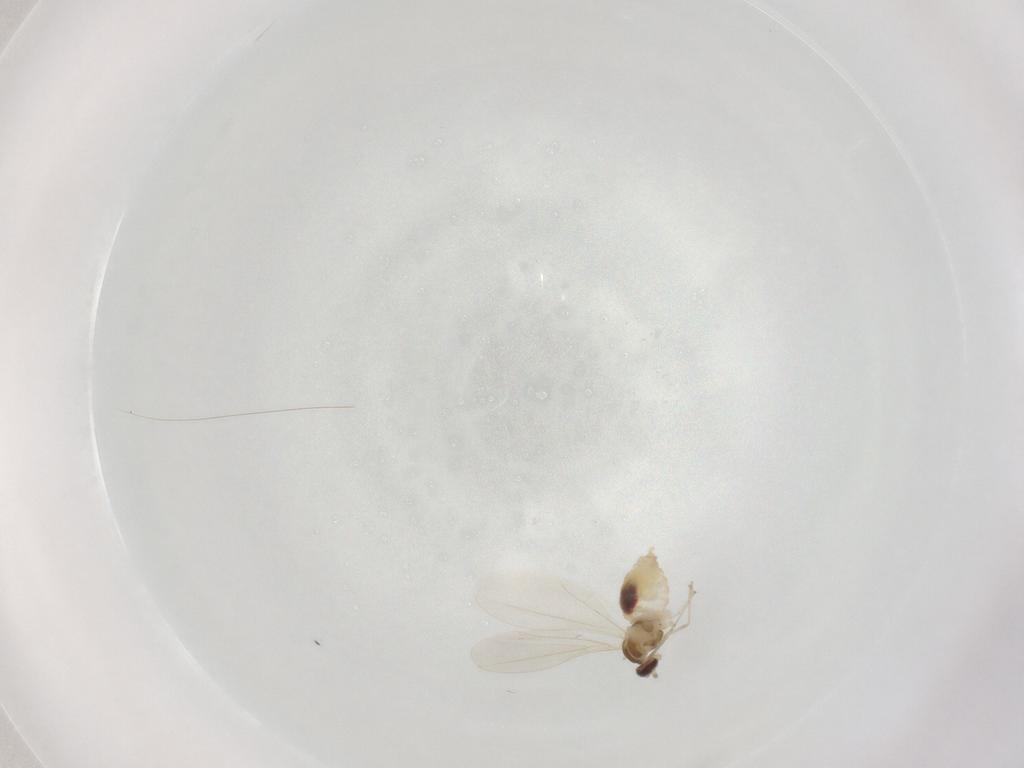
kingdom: Animalia
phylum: Arthropoda
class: Insecta
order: Diptera
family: Cecidomyiidae
